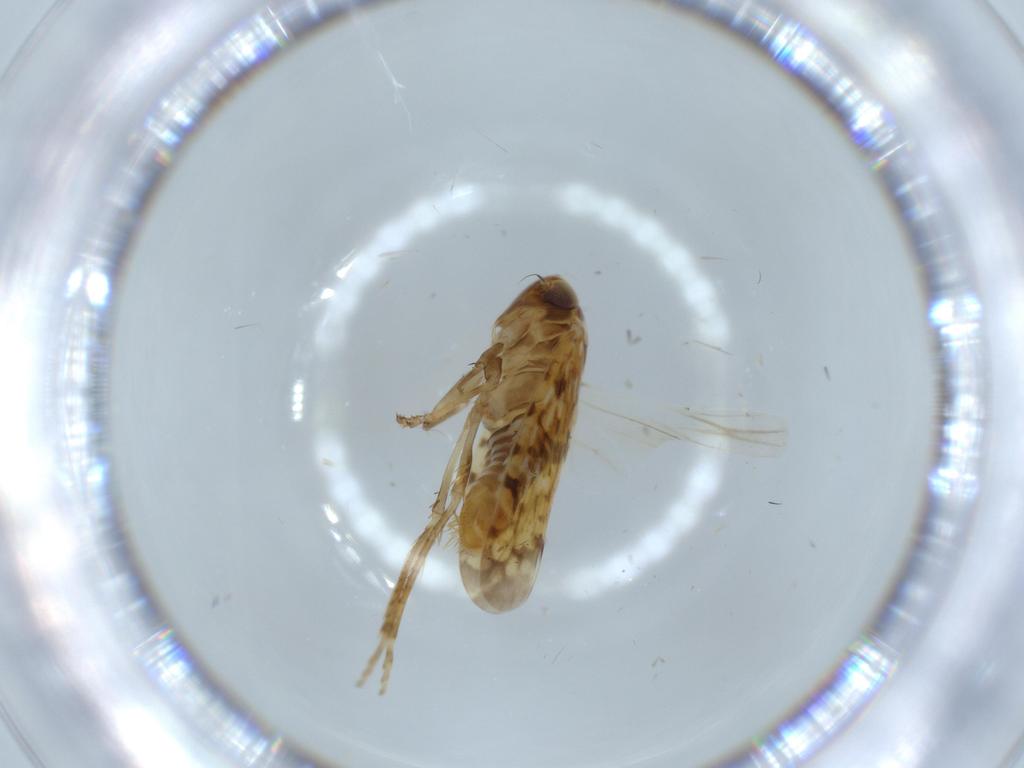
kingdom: Animalia
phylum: Arthropoda
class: Insecta
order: Hemiptera
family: Cicadellidae
